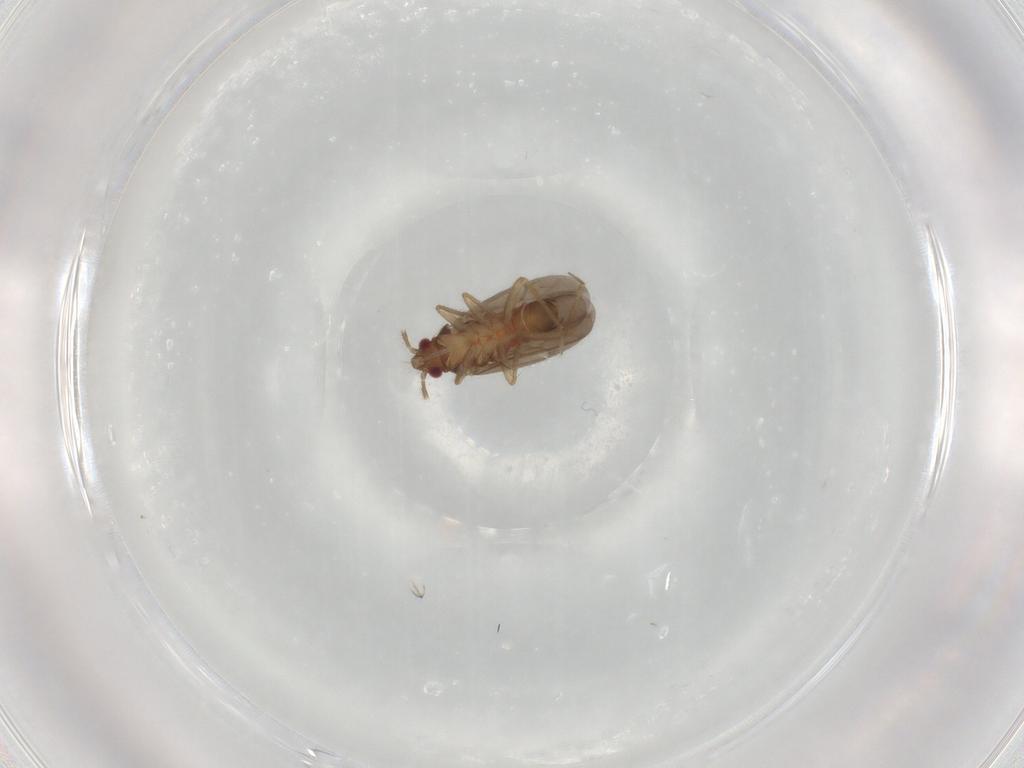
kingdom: Animalia
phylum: Arthropoda
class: Insecta
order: Hemiptera
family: Ceratocombidae
